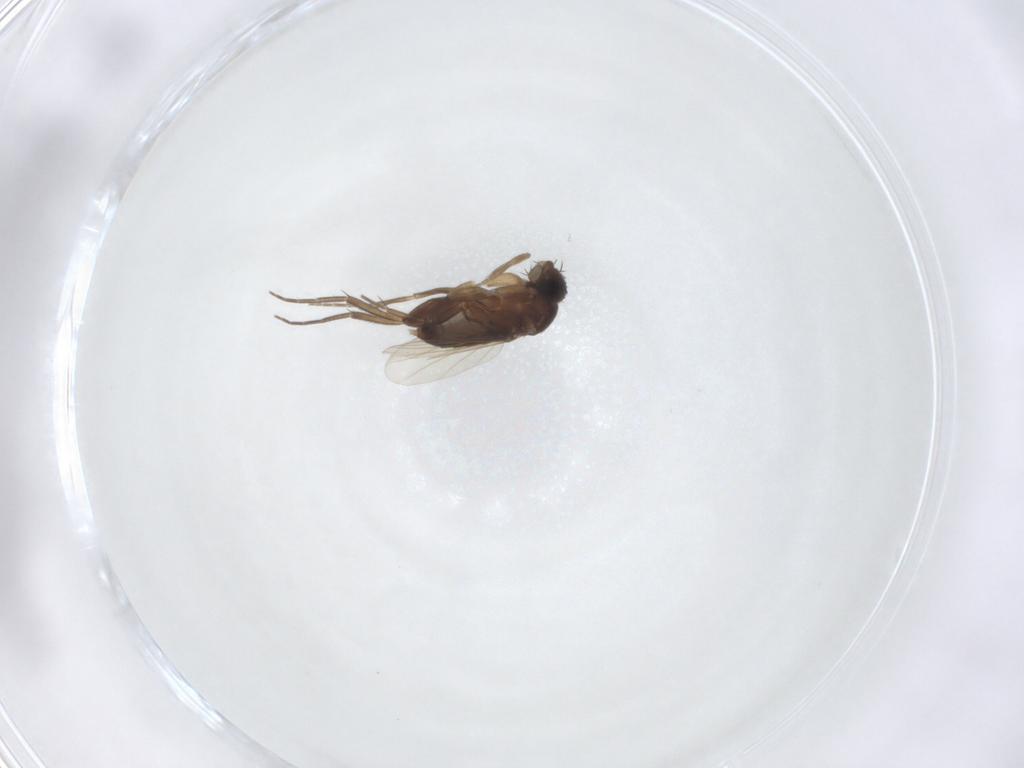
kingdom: Animalia
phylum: Arthropoda
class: Insecta
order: Diptera
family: Phoridae
